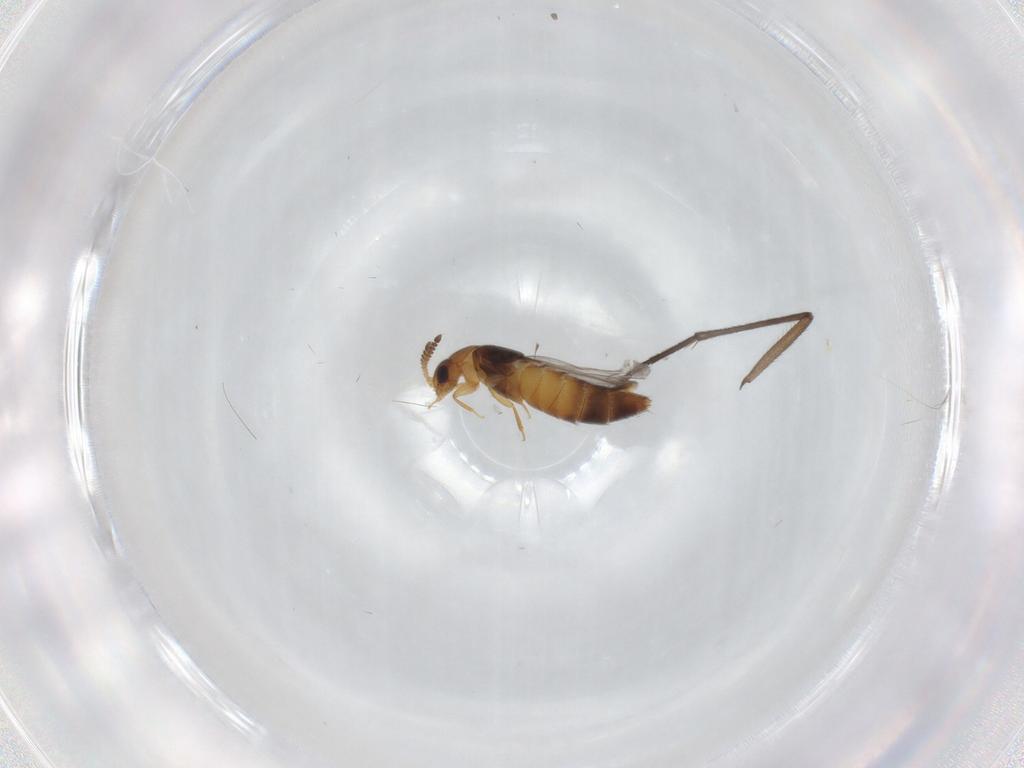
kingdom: Animalia
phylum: Arthropoda
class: Insecta
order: Coleoptera
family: Staphylinidae
